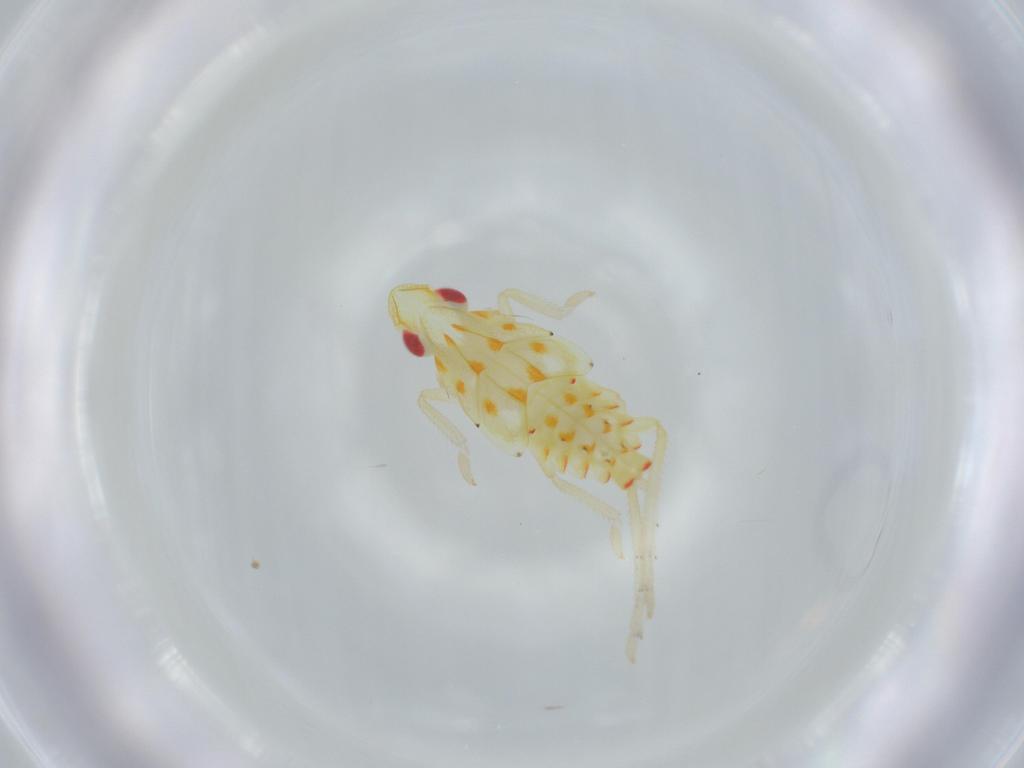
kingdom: Animalia
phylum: Arthropoda
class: Insecta
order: Hemiptera
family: Tropiduchidae
